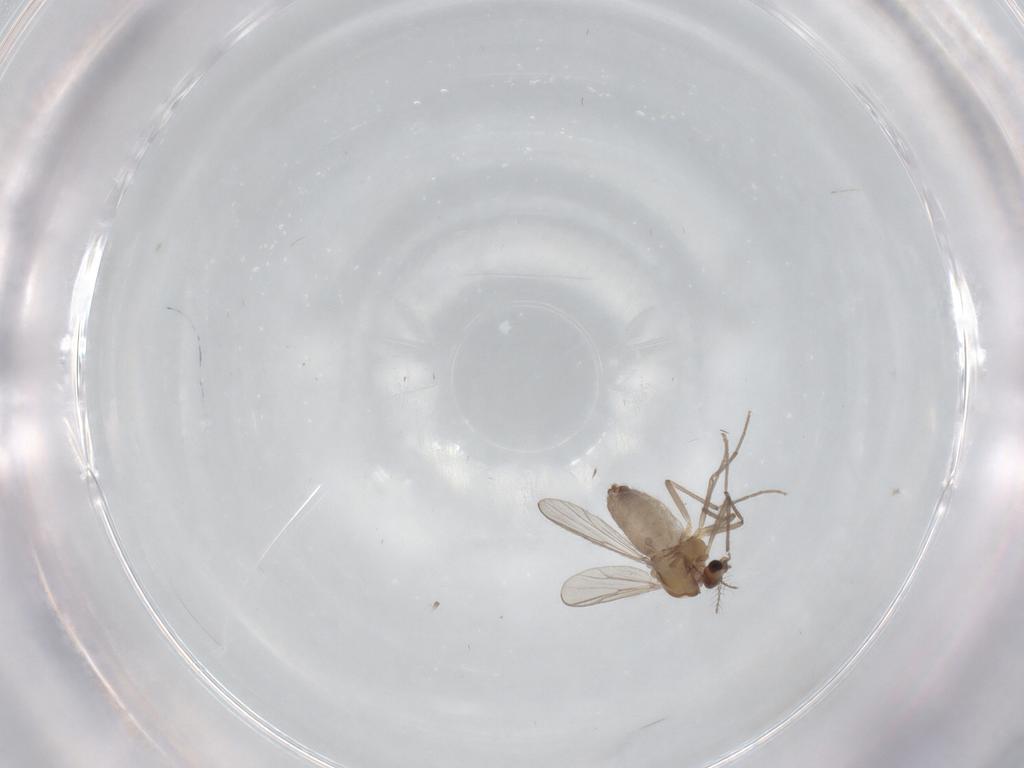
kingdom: Animalia
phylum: Arthropoda
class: Insecta
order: Diptera
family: Chironomidae
